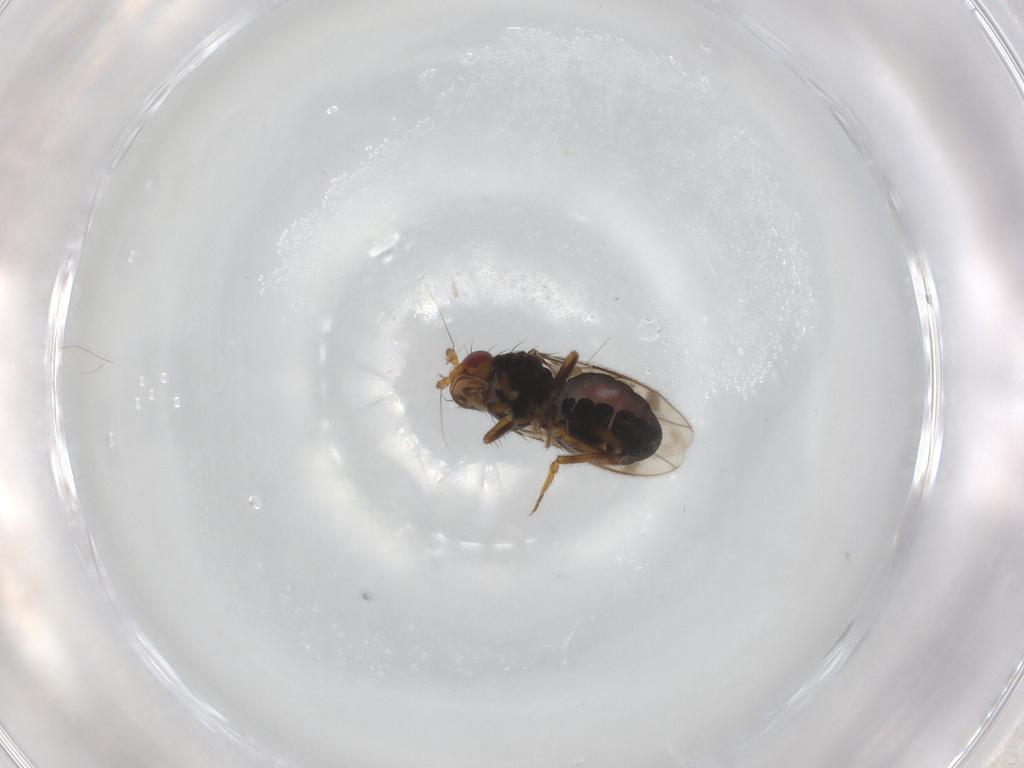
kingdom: Animalia
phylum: Arthropoda
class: Insecta
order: Diptera
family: Sphaeroceridae
